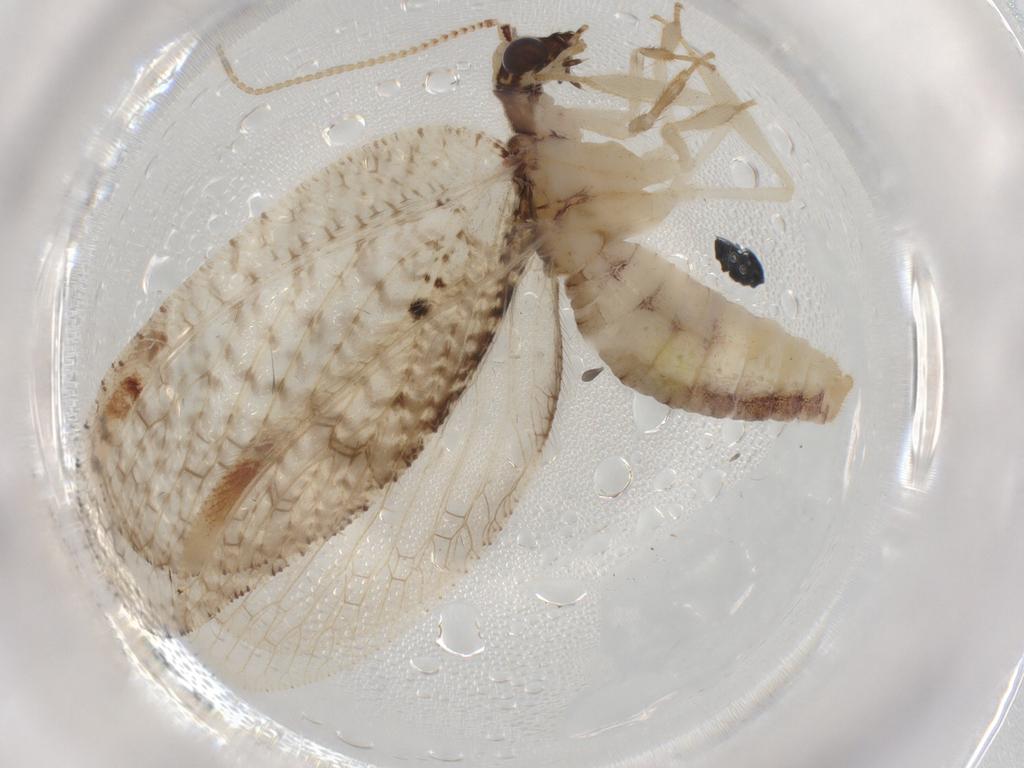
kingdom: Animalia
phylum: Arthropoda
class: Insecta
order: Neuroptera
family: Hemerobiidae
